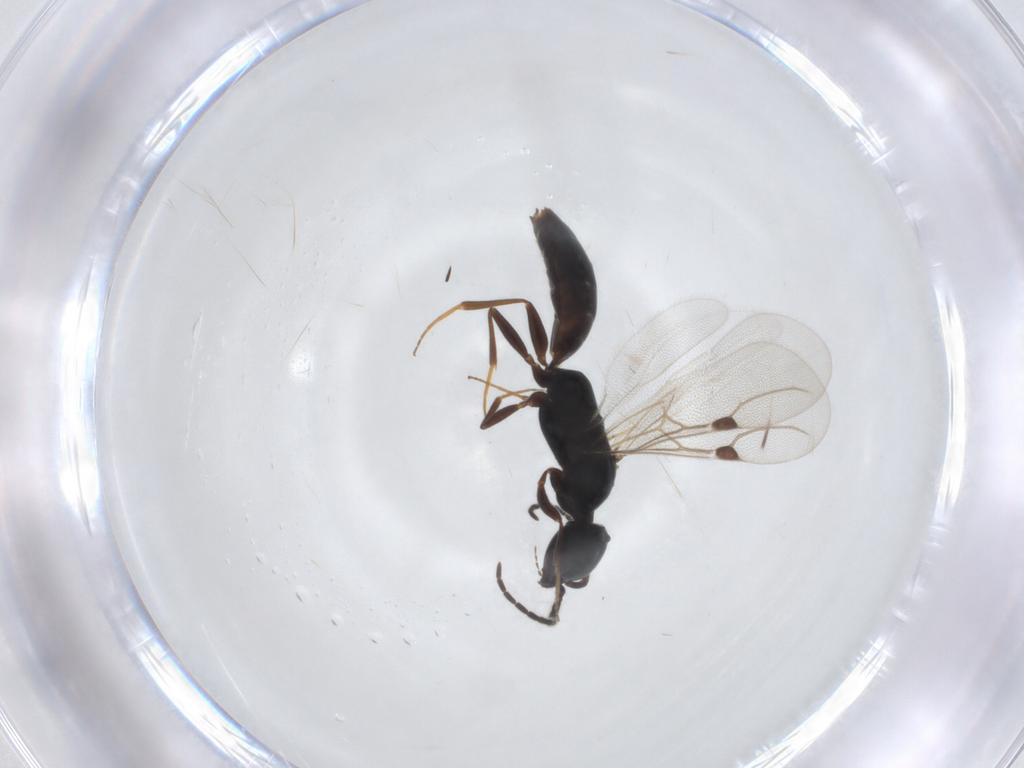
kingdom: Animalia
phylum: Arthropoda
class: Insecta
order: Hymenoptera
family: Bethylidae
